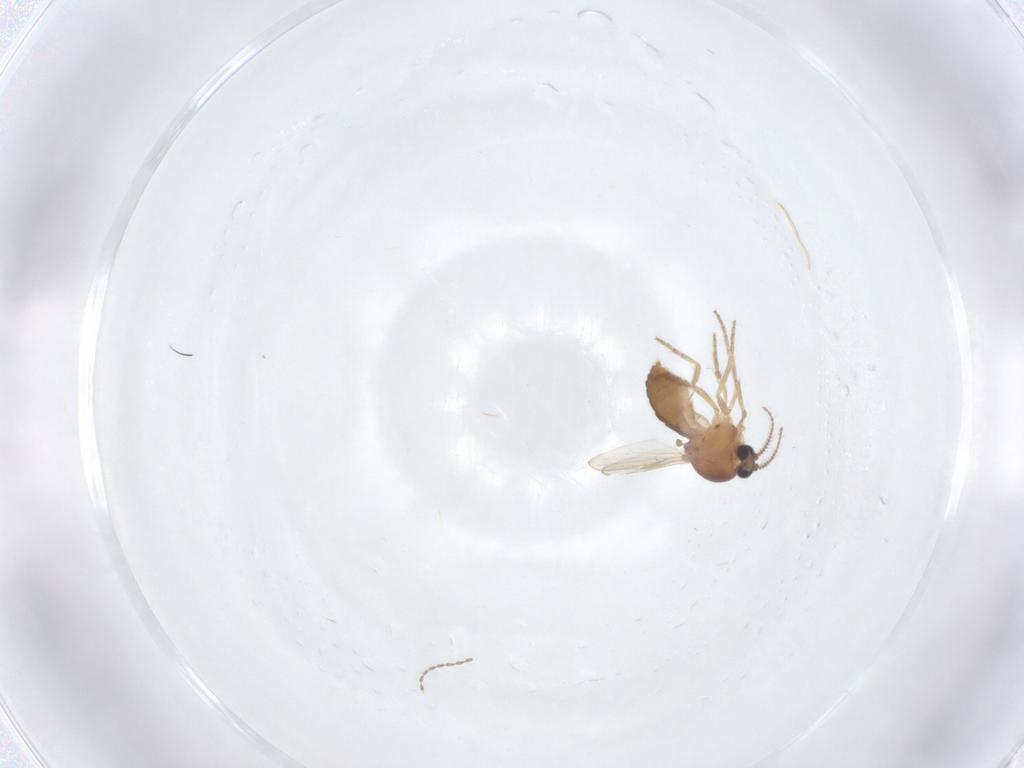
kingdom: Animalia
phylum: Arthropoda
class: Insecta
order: Diptera
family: Ceratopogonidae
